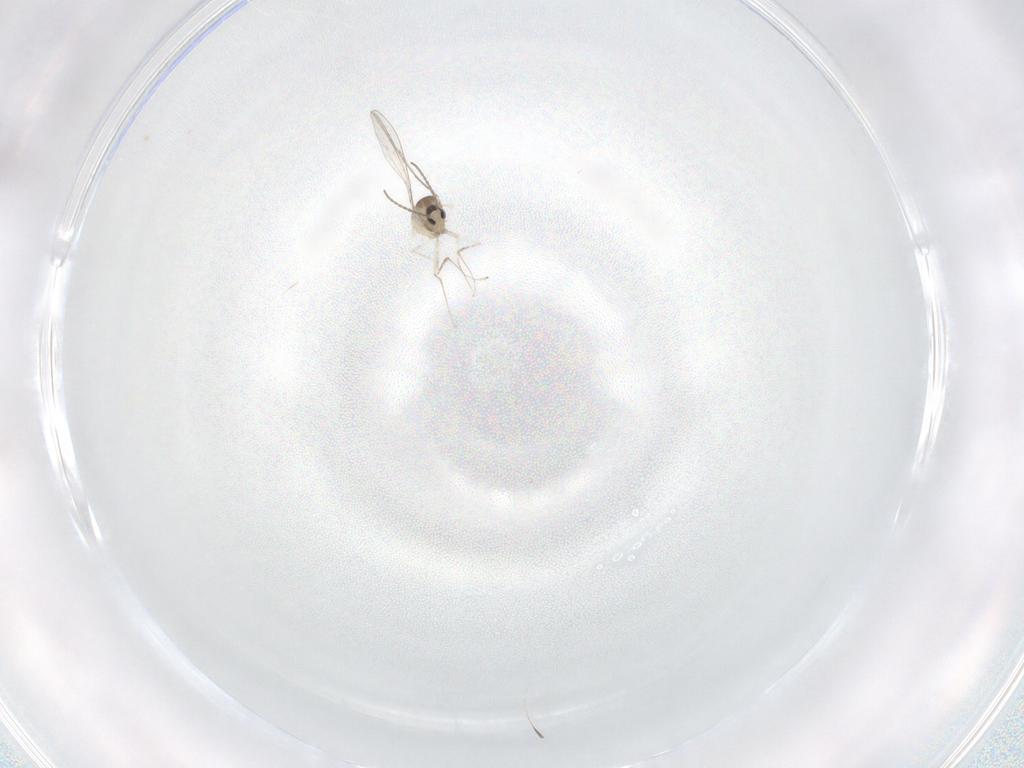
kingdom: Animalia
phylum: Arthropoda
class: Insecta
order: Diptera
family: Cecidomyiidae
